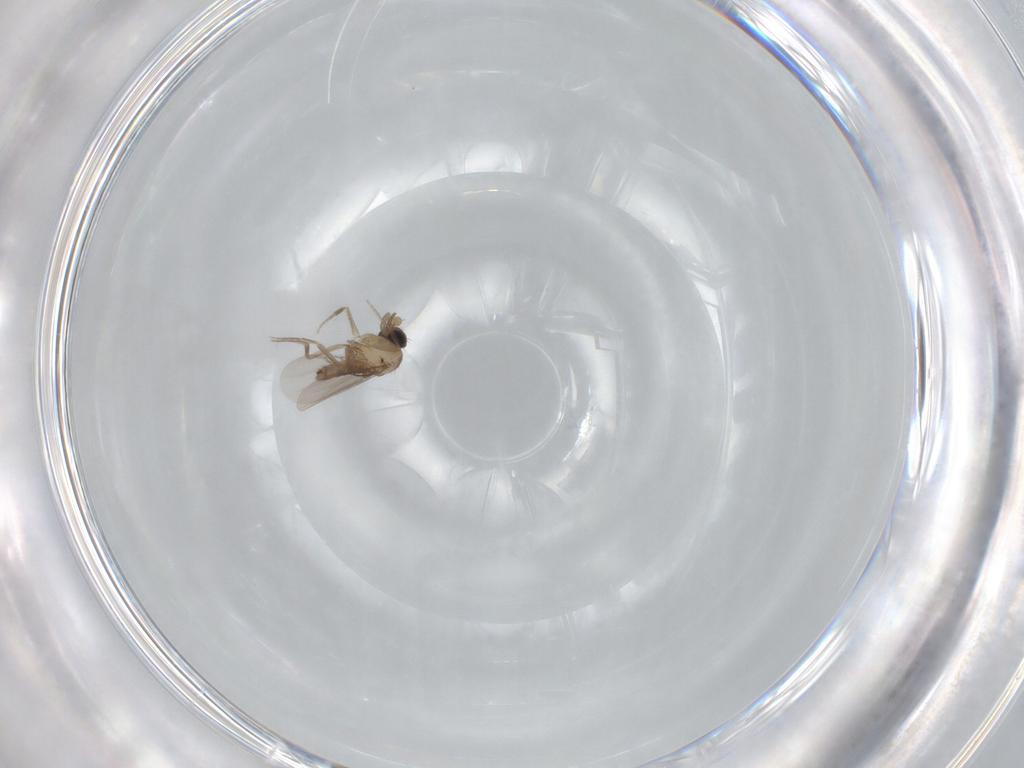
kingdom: Animalia
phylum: Arthropoda
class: Insecta
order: Diptera
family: Phoridae
